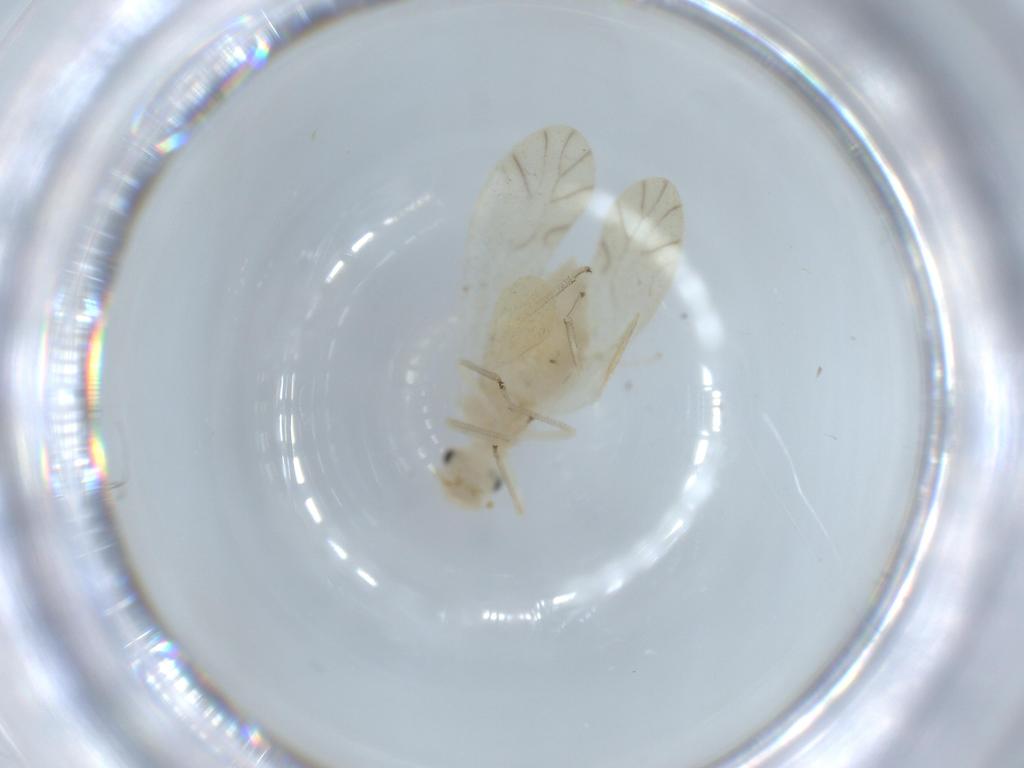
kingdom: Animalia
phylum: Arthropoda
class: Insecta
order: Psocodea
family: Caeciliusidae
